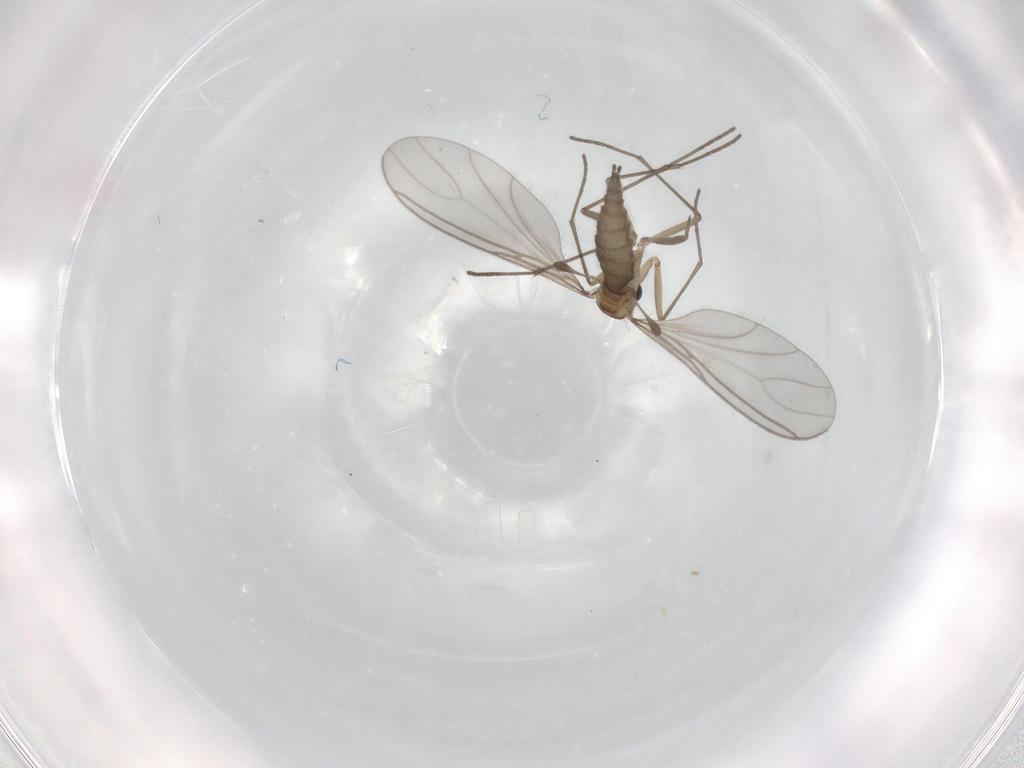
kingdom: Animalia
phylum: Arthropoda
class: Insecta
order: Diptera
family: Sciaridae
